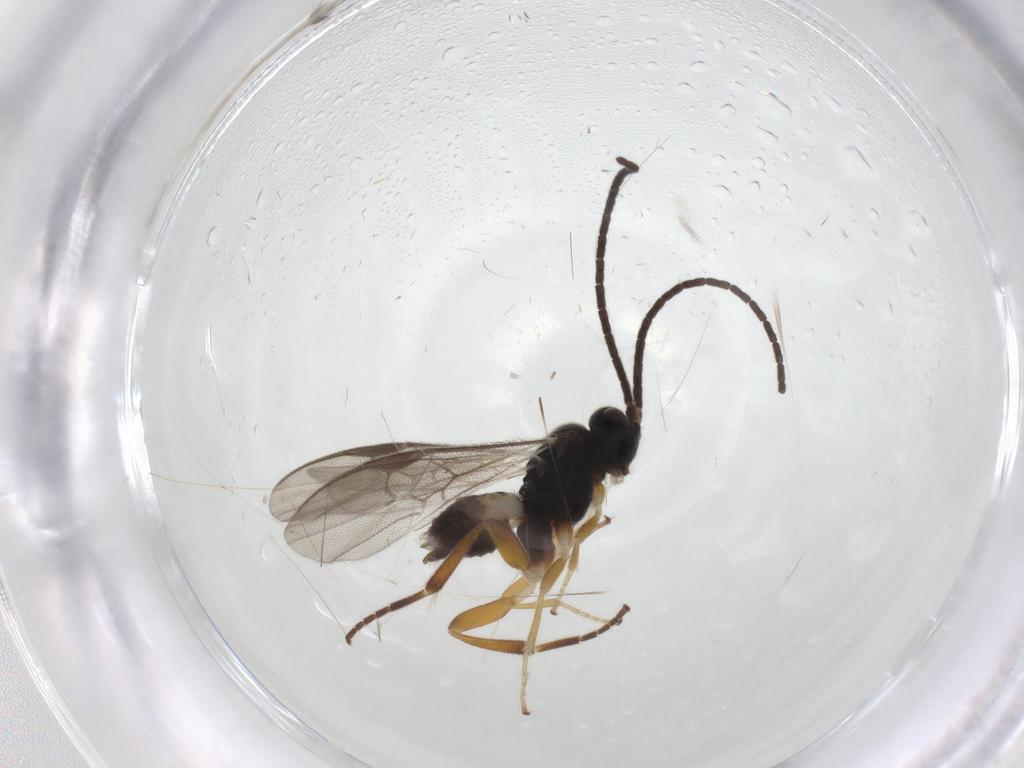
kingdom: Animalia
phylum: Arthropoda
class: Insecta
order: Hymenoptera
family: Braconidae
